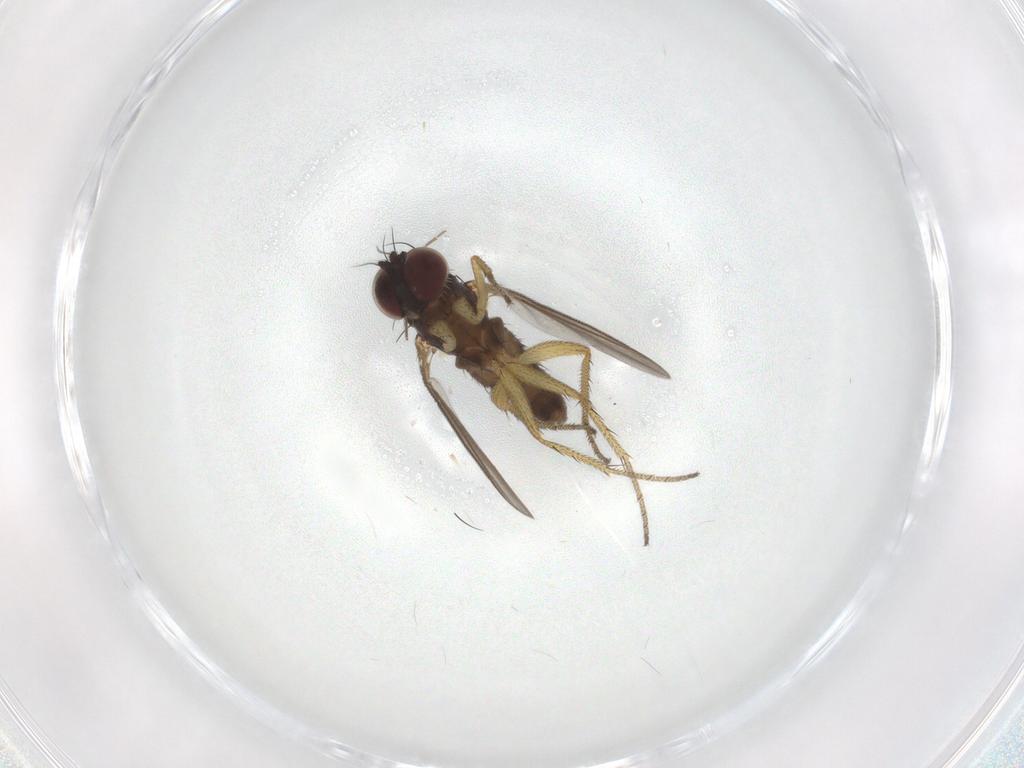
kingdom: Animalia
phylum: Arthropoda
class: Insecta
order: Diptera
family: Dolichopodidae
